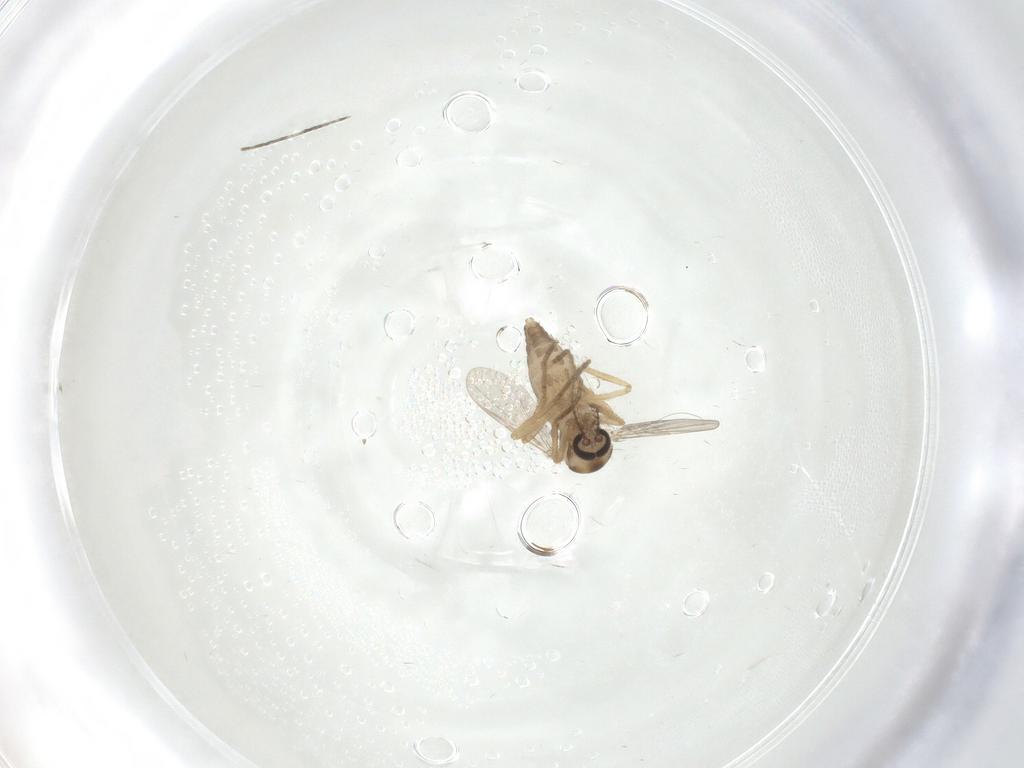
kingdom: Animalia
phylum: Arthropoda
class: Insecta
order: Diptera
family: Ceratopogonidae
